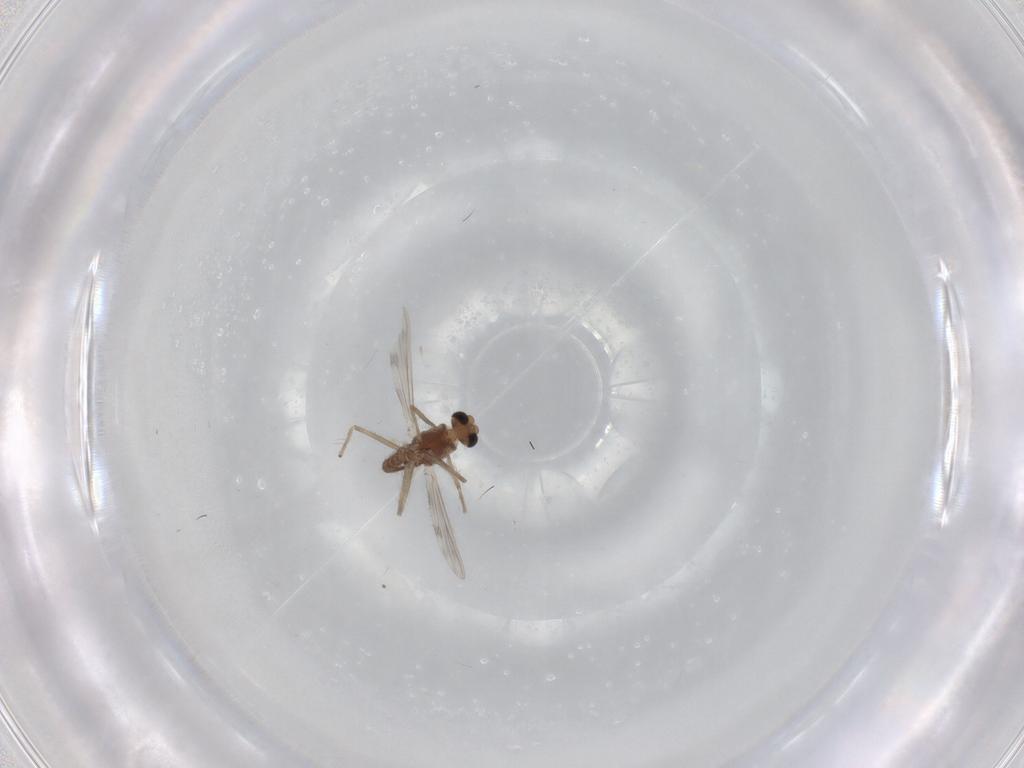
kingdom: Animalia
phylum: Arthropoda
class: Insecta
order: Diptera
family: Chironomidae
